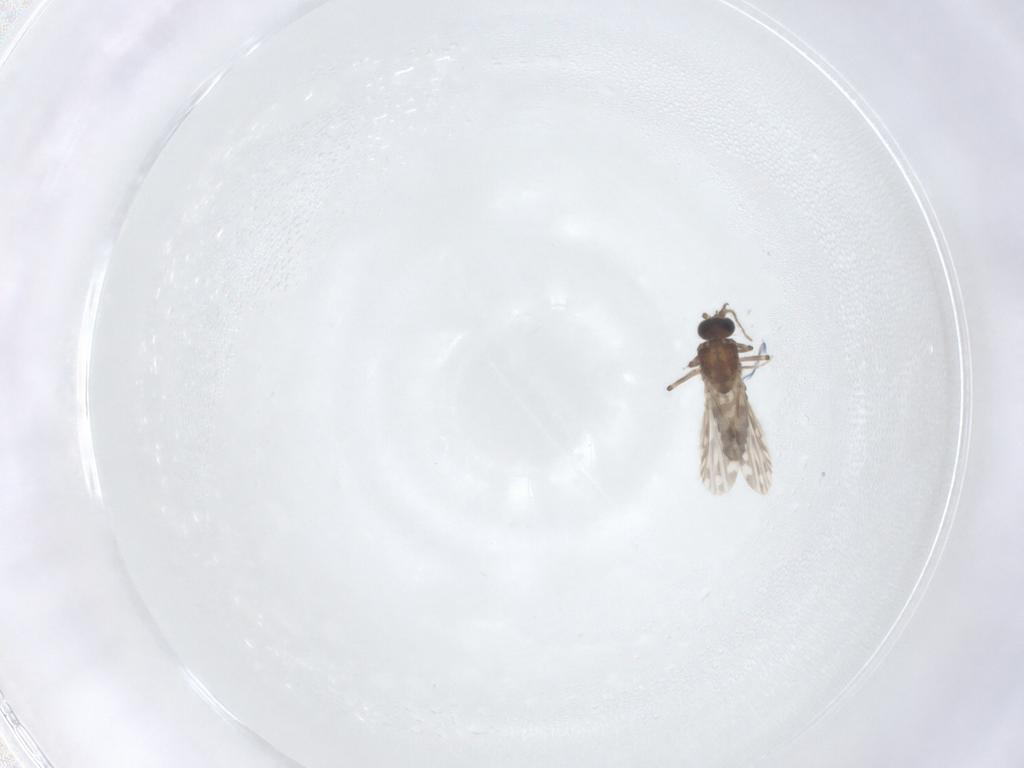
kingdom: Animalia
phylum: Arthropoda
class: Insecta
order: Diptera
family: Ceratopogonidae
